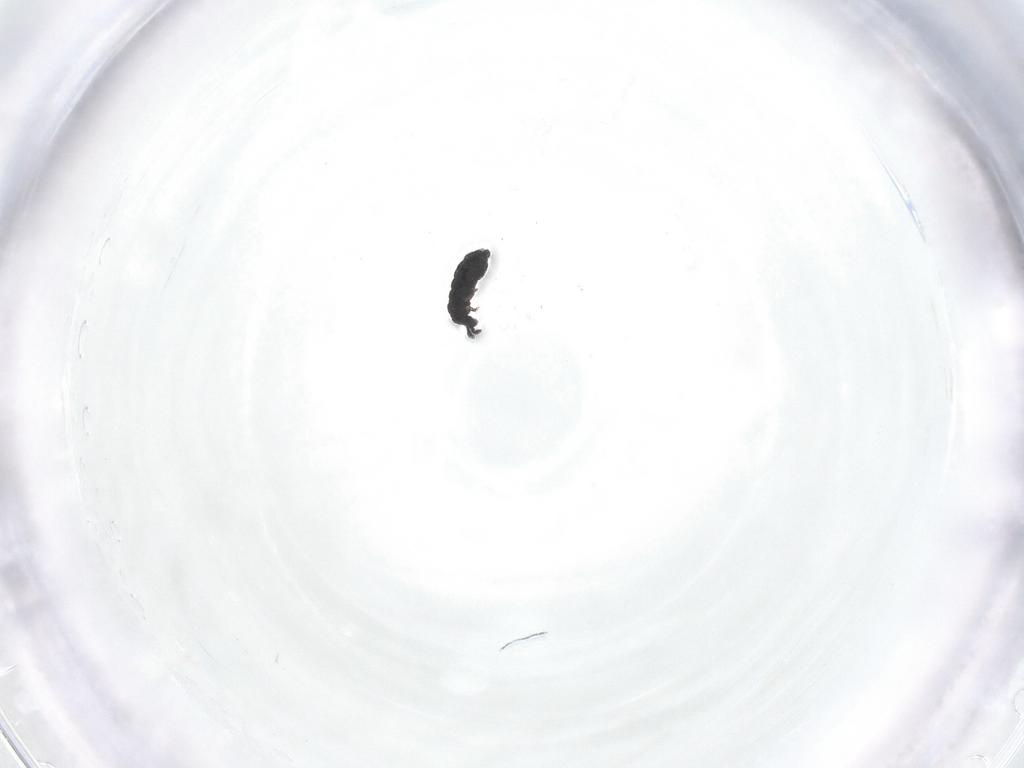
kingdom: Animalia
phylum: Arthropoda
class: Collembola
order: Poduromorpha
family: Hypogastruridae
